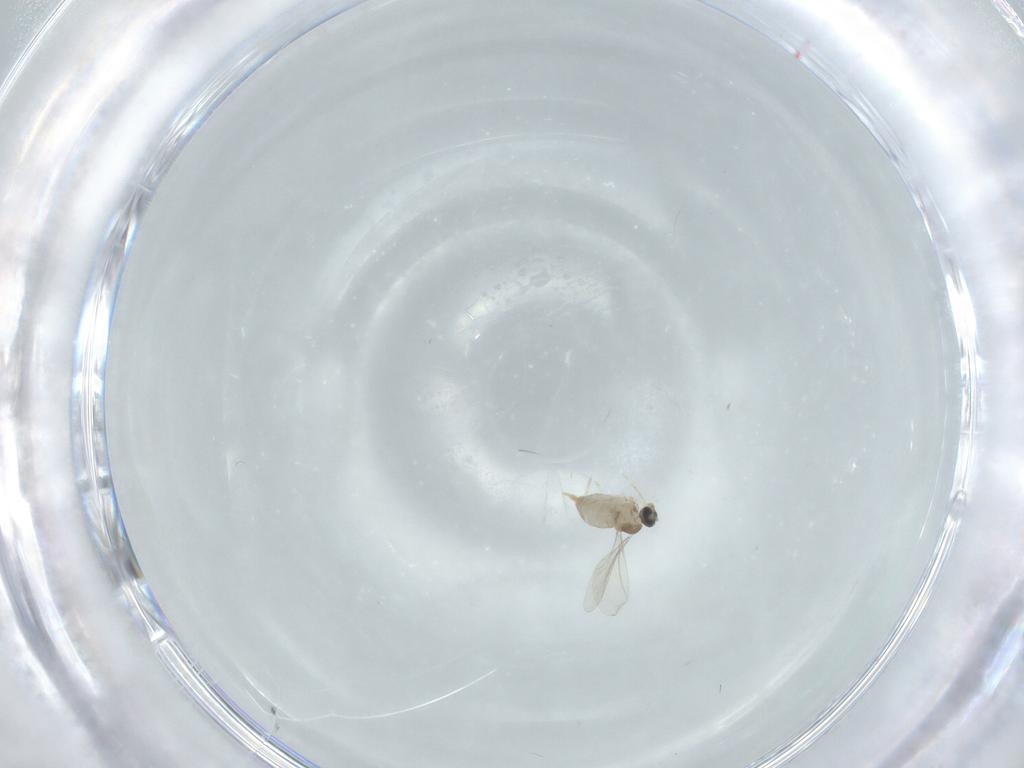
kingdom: Animalia
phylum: Arthropoda
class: Insecta
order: Diptera
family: Cecidomyiidae
